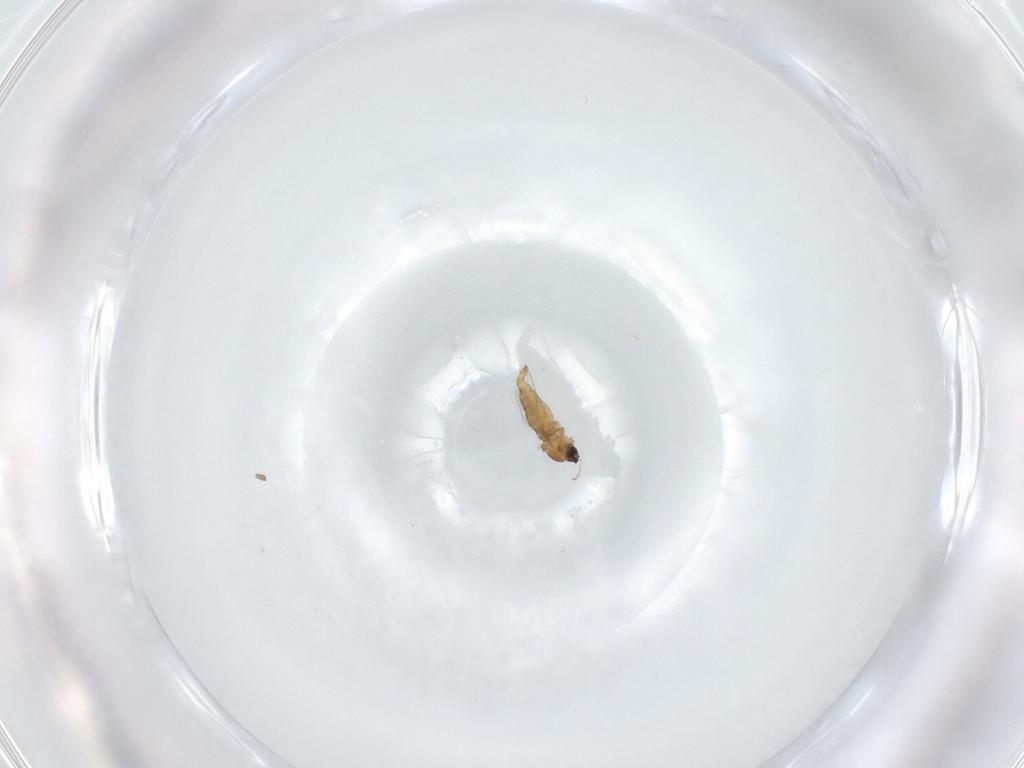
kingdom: Animalia
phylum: Arthropoda
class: Insecta
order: Diptera
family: Cecidomyiidae
